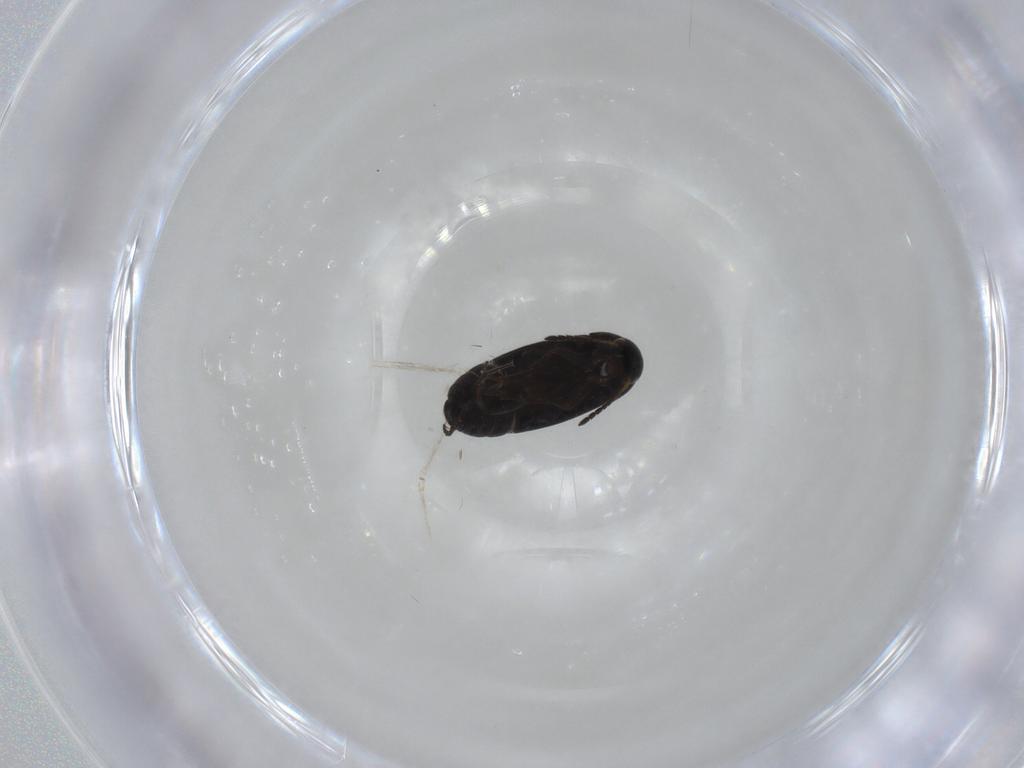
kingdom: Animalia
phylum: Arthropoda
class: Insecta
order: Coleoptera
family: Scraptiidae
